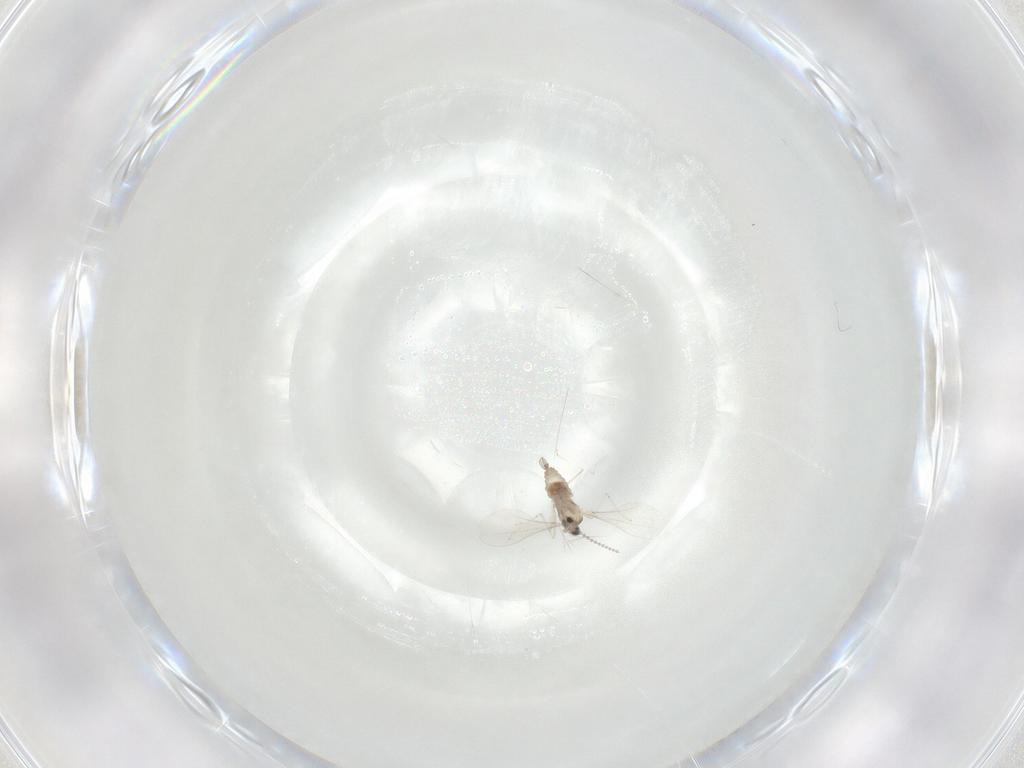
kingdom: Animalia
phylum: Arthropoda
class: Insecta
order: Diptera
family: Cecidomyiidae
